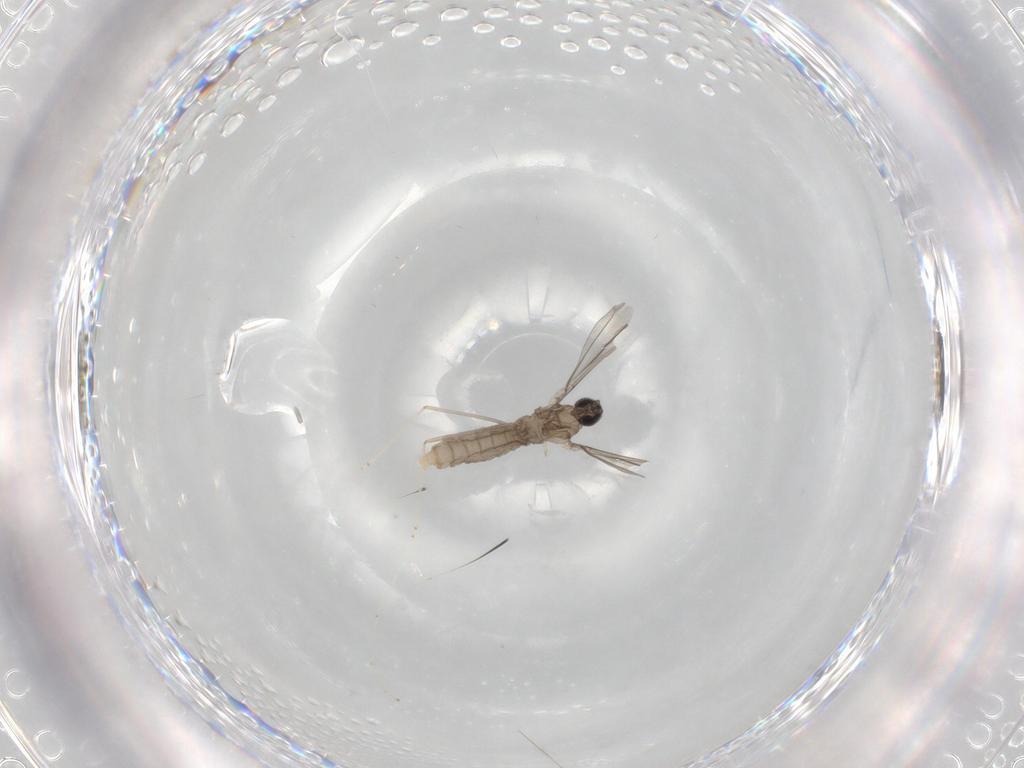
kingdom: Animalia
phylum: Arthropoda
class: Insecta
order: Diptera
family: Cecidomyiidae
